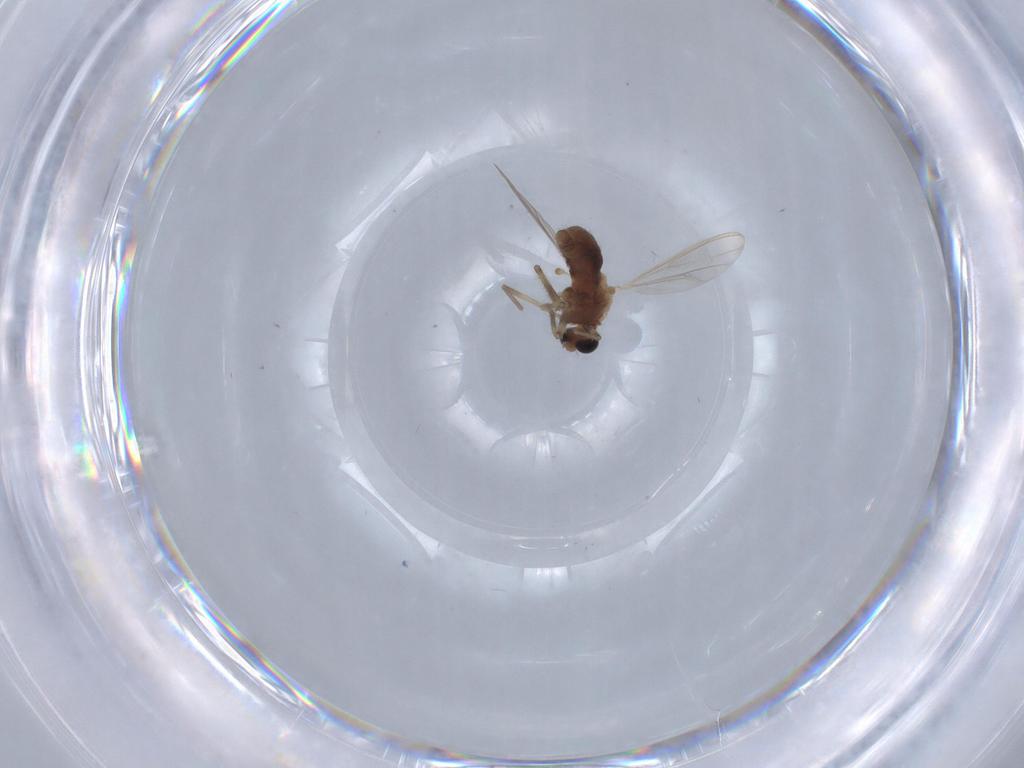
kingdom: Animalia
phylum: Arthropoda
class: Insecta
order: Diptera
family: Chironomidae
